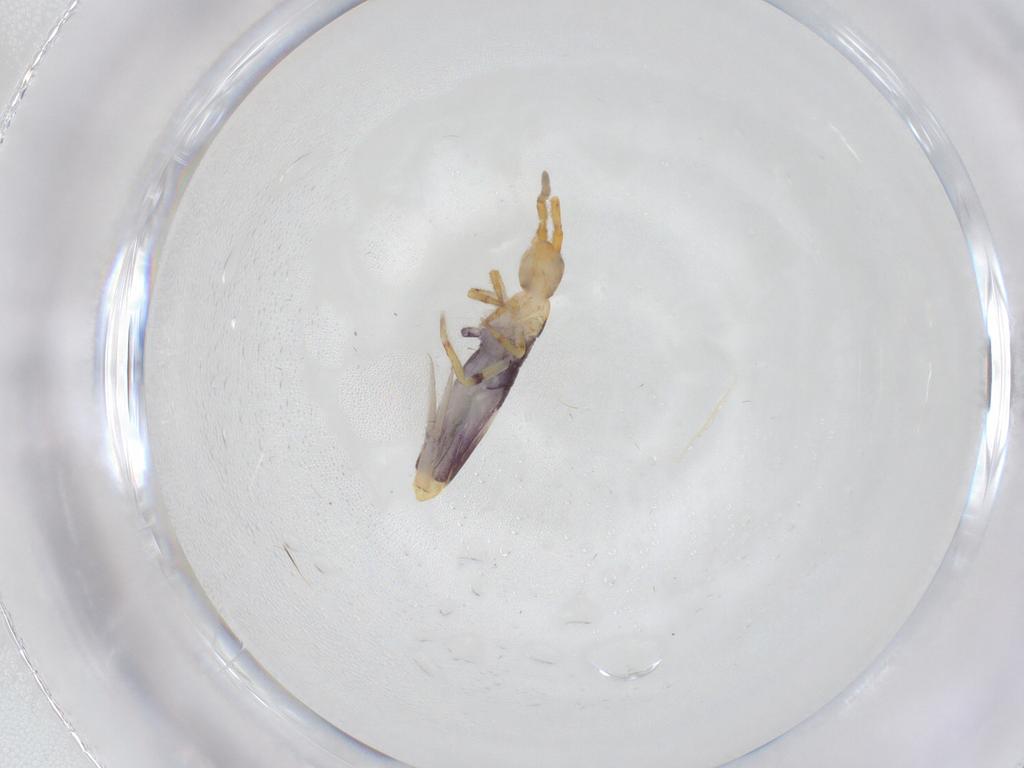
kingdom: Animalia
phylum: Arthropoda
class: Collembola
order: Entomobryomorpha
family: Entomobryidae
